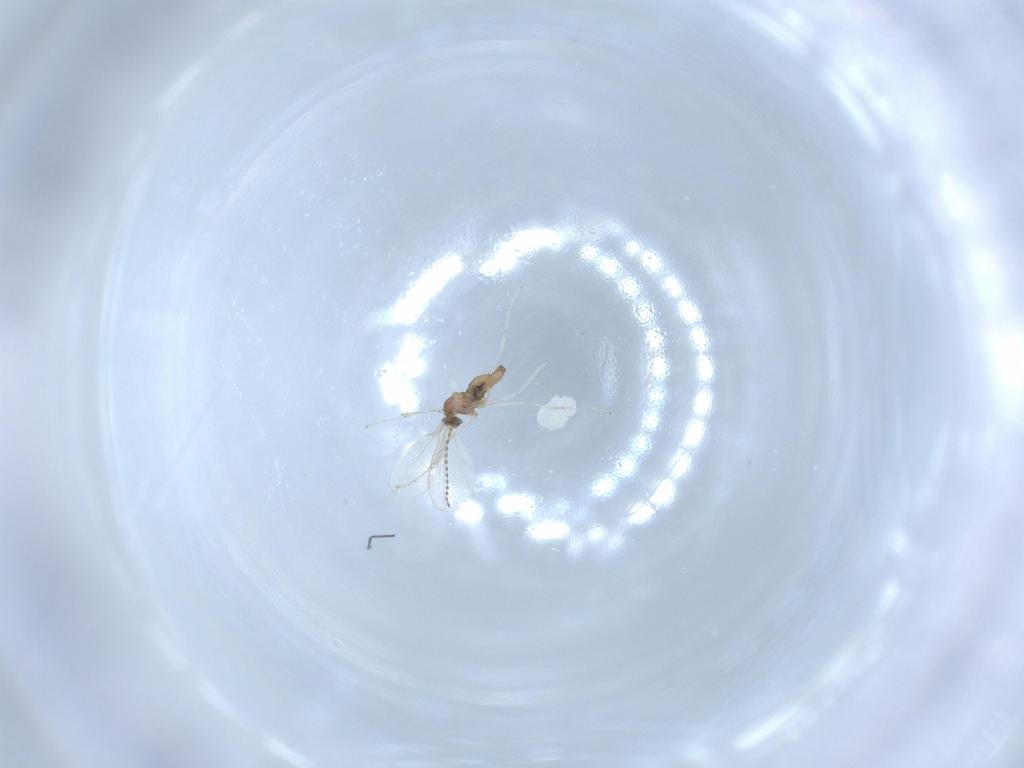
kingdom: Animalia
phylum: Arthropoda
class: Insecta
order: Diptera
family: Cecidomyiidae
